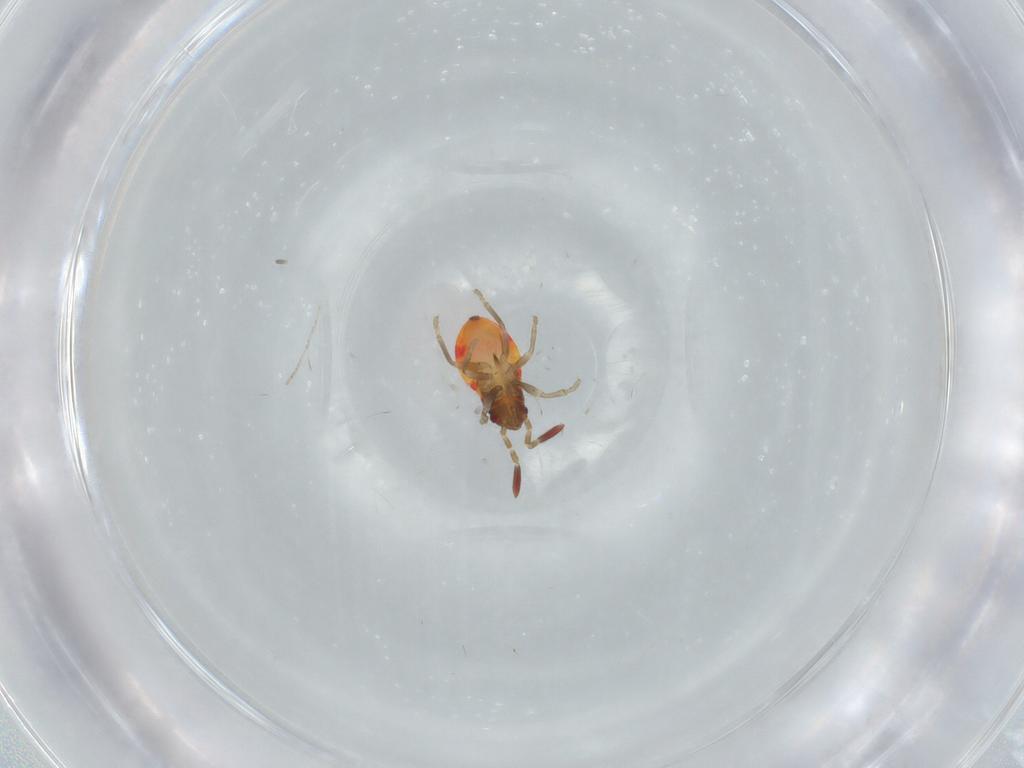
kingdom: Animalia
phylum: Arthropoda
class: Insecta
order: Hemiptera
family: Rhyparochromidae
